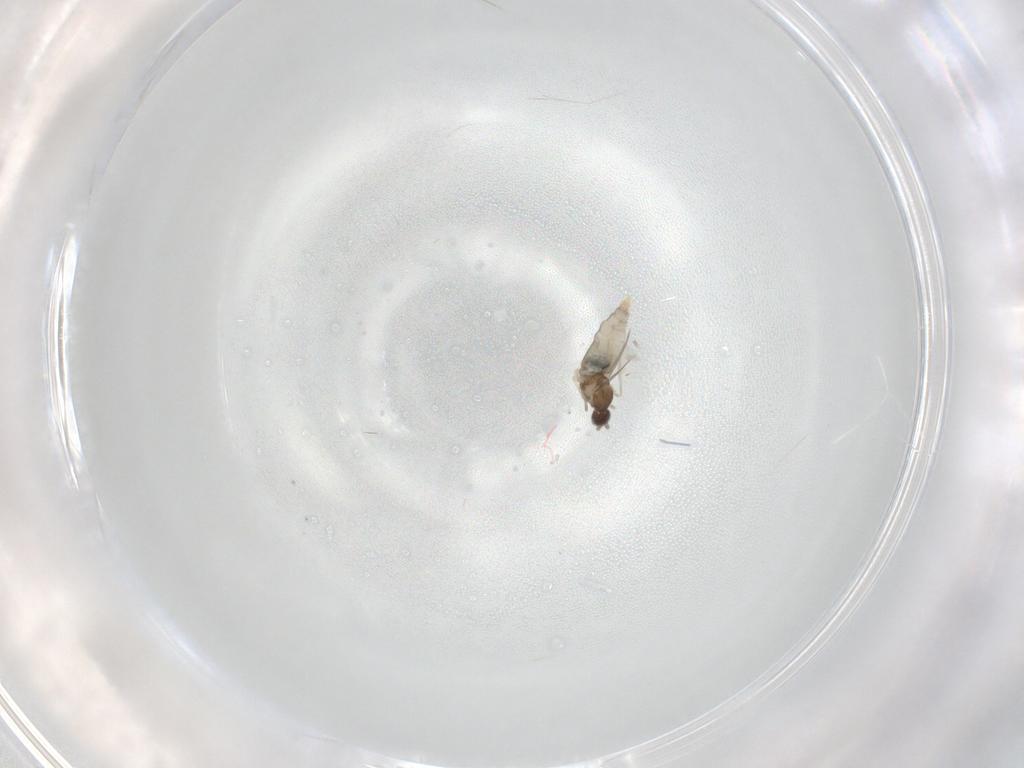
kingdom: Animalia
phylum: Arthropoda
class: Insecta
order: Diptera
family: Cecidomyiidae
